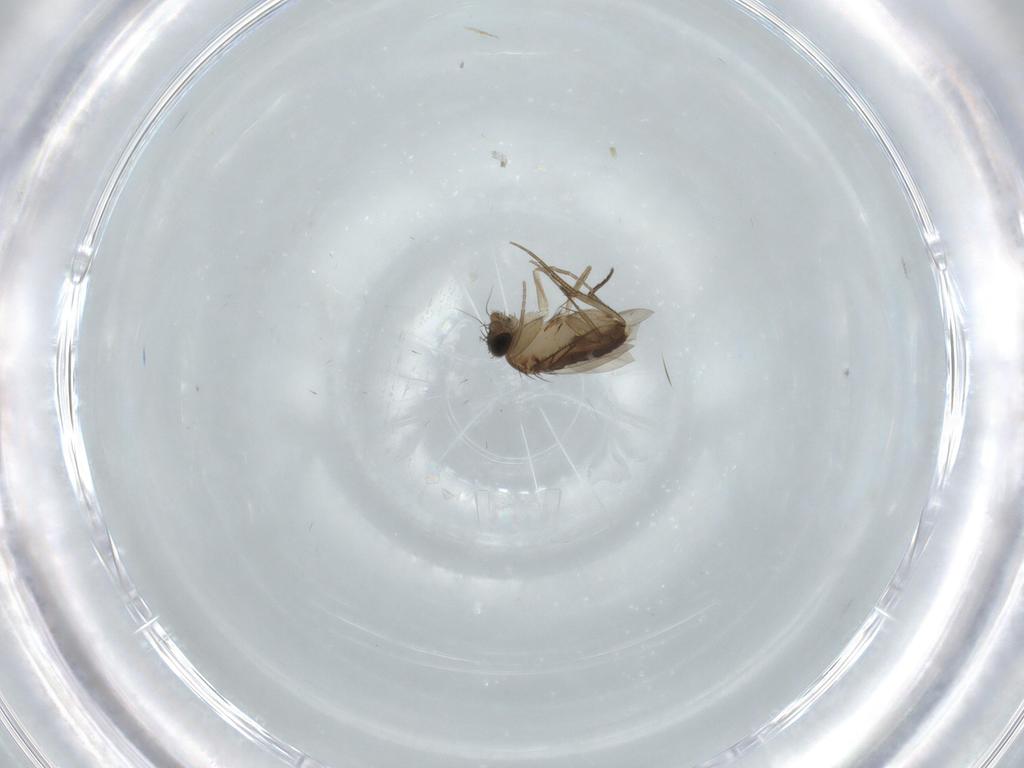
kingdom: Animalia
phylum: Arthropoda
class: Insecta
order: Diptera
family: Phoridae
